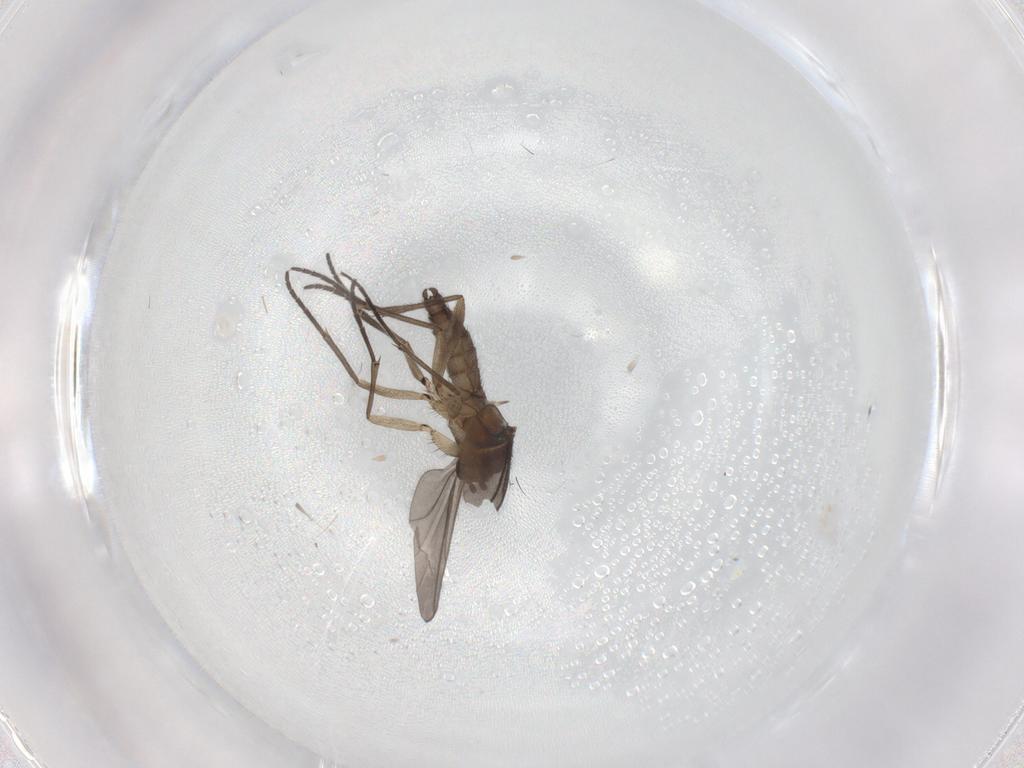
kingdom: Animalia
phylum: Arthropoda
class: Insecta
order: Diptera
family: Sciaridae
